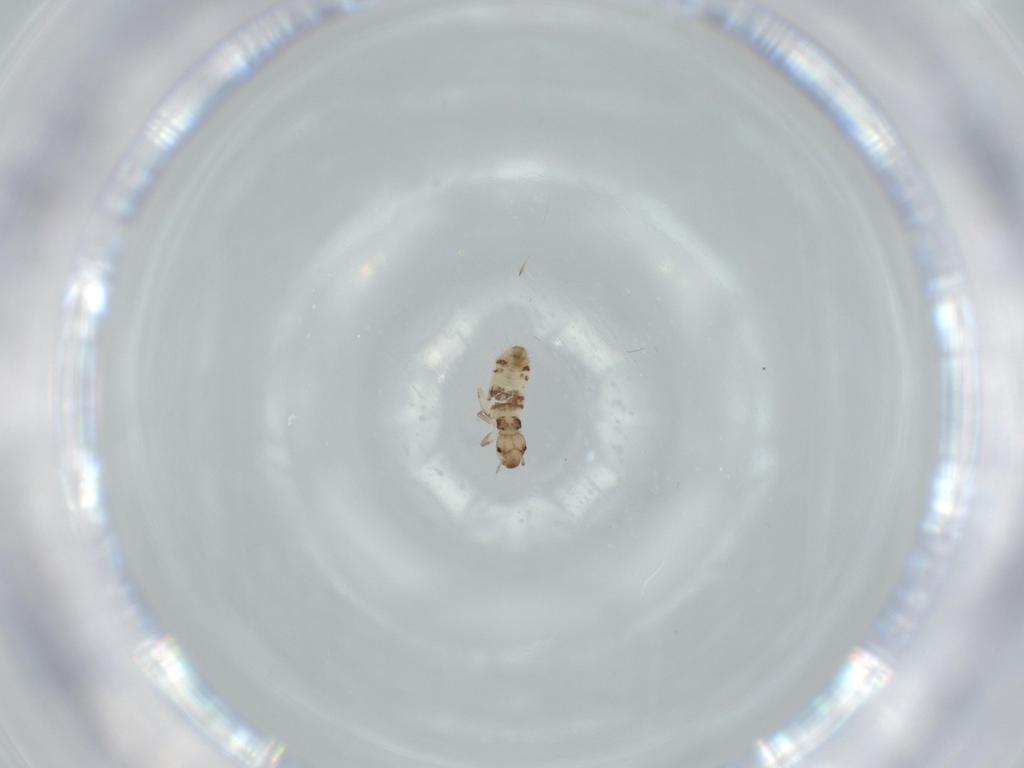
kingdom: Animalia
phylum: Arthropoda
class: Insecta
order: Psocodea
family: Liposcelididae
